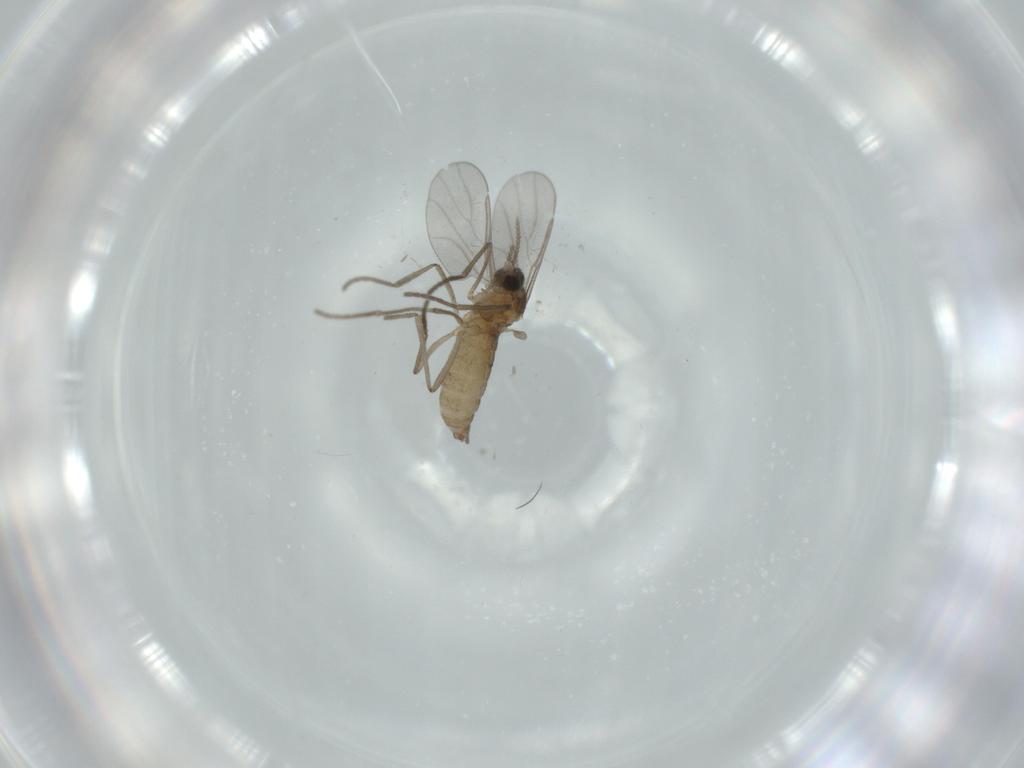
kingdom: Animalia
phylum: Arthropoda
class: Insecta
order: Diptera
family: Chironomidae
